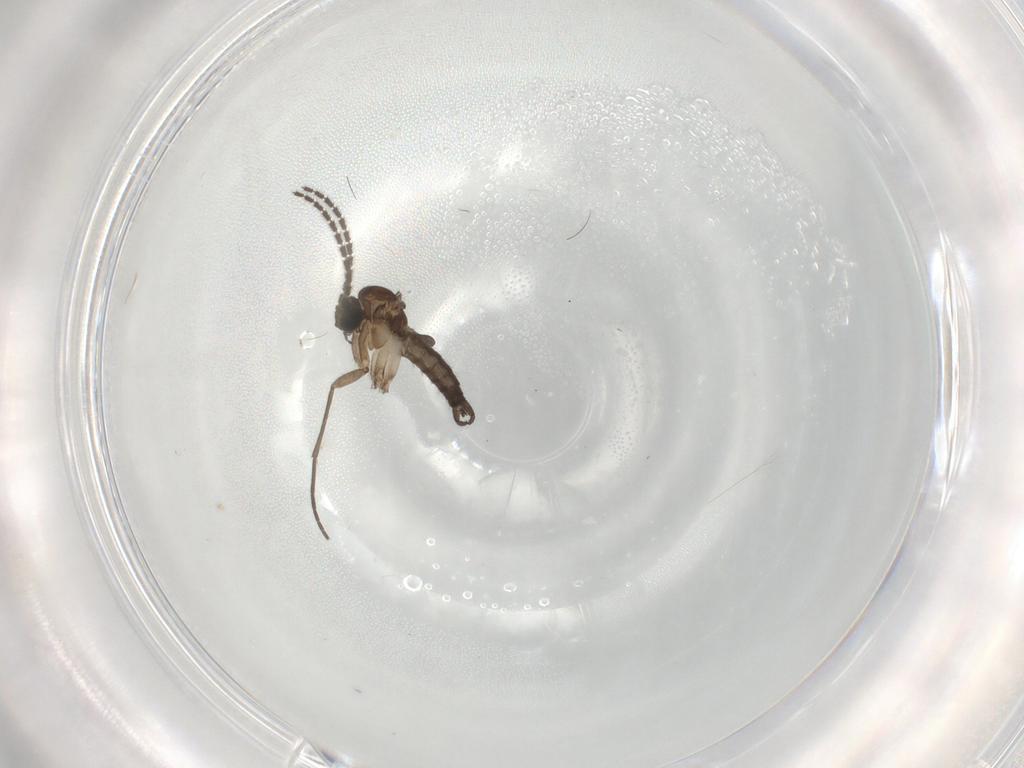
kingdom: Animalia
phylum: Arthropoda
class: Insecta
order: Diptera
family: Sciaridae
